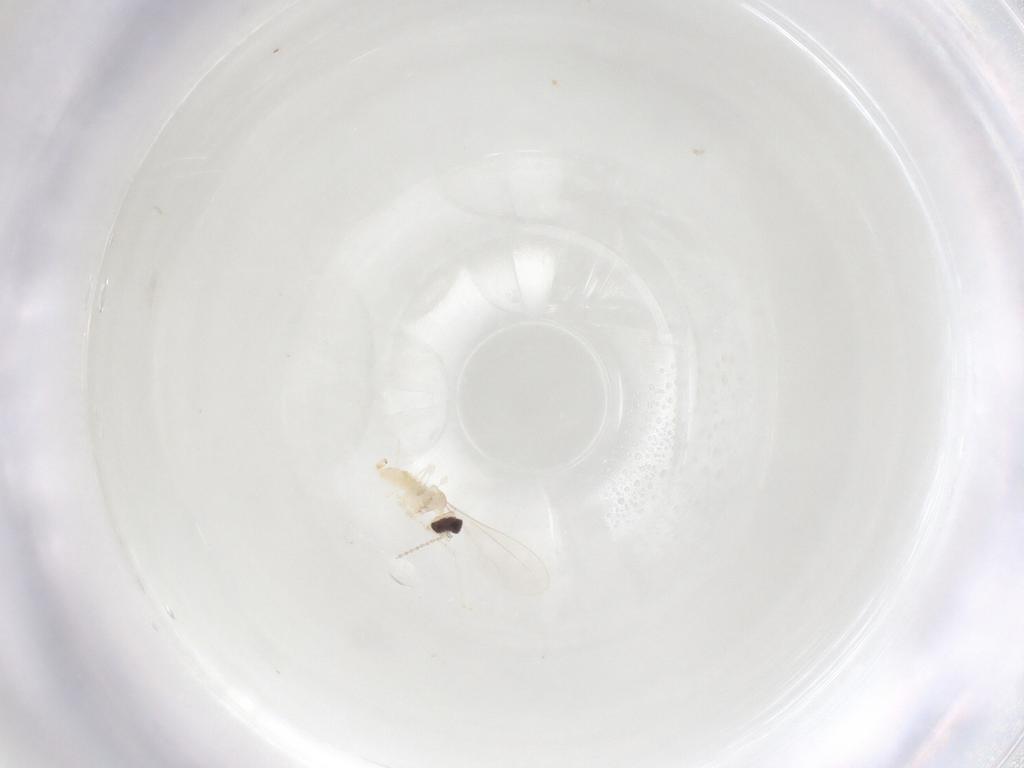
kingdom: Animalia
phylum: Arthropoda
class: Insecta
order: Diptera
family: Cecidomyiidae
